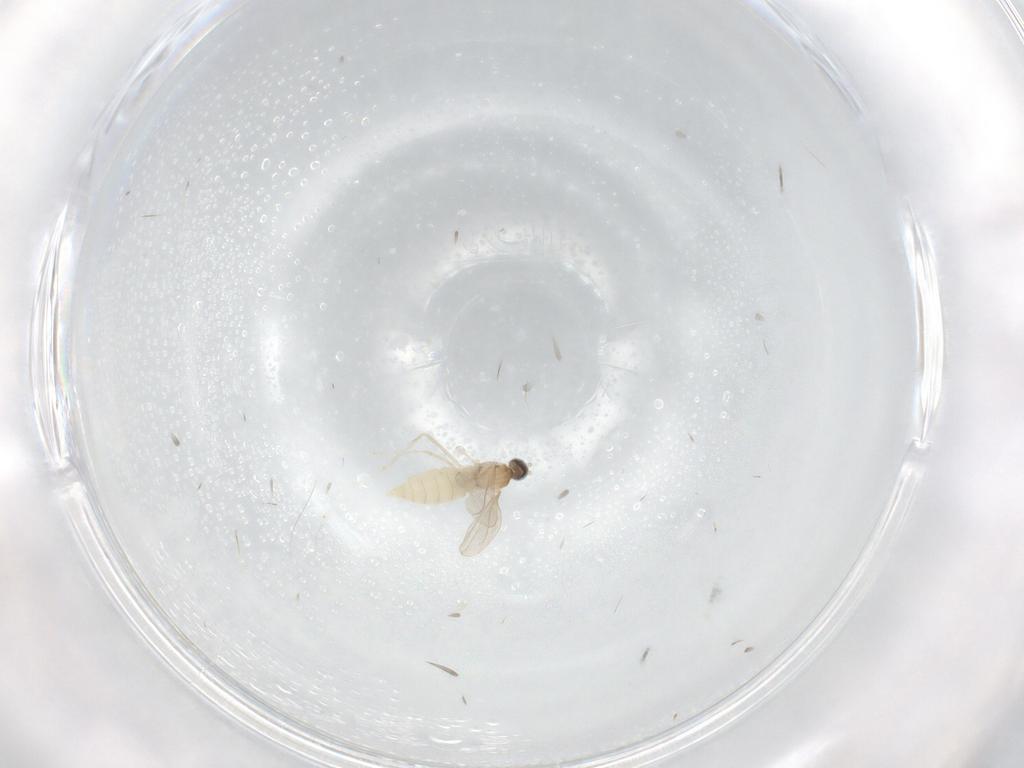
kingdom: Animalia
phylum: Arthropoda
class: Insecta
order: Diptera
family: Cecidomyiidae
